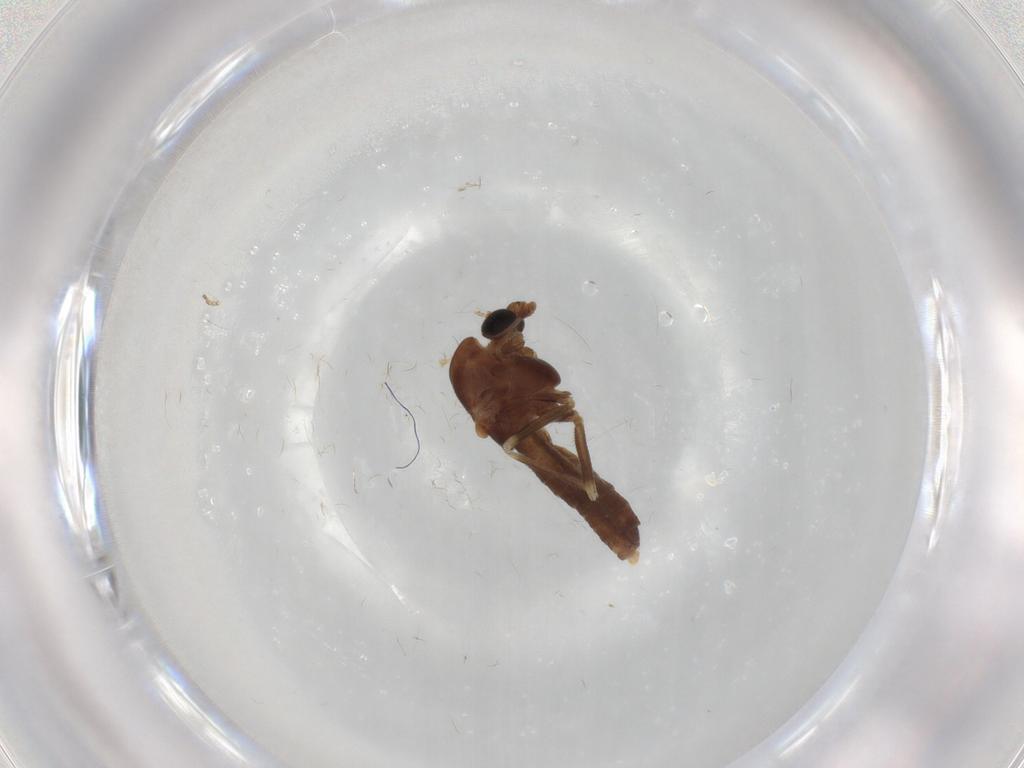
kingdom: Animalia
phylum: Arthropoda
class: Insecta
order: Diptera
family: Chironomidae
